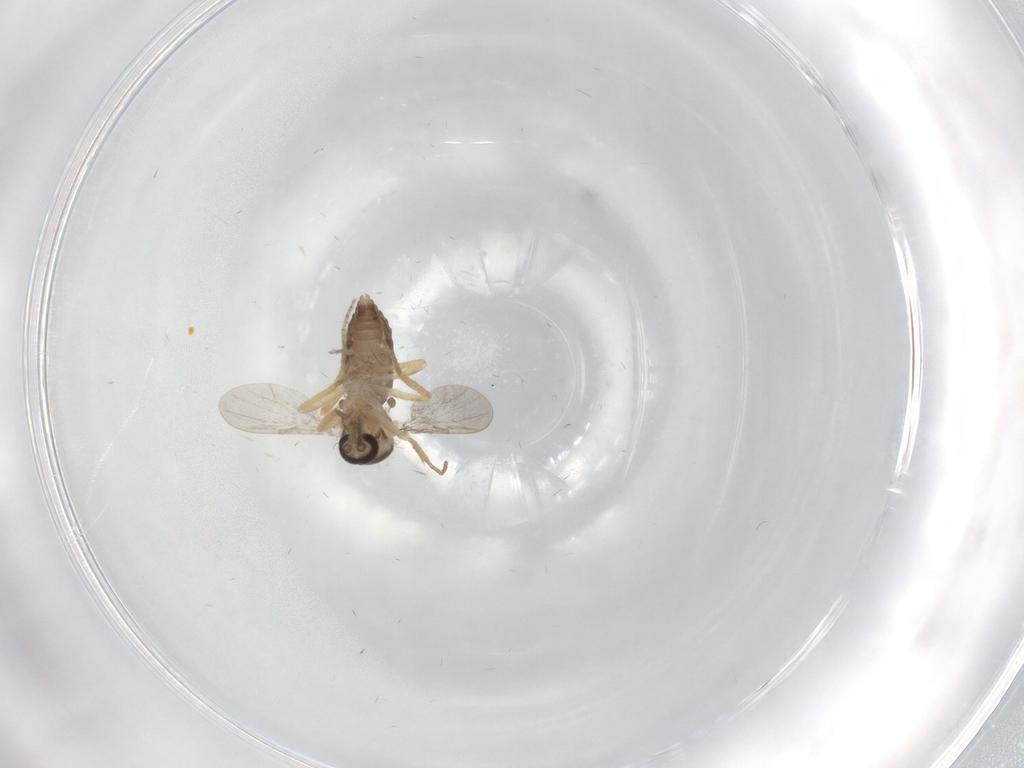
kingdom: Animalia
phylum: Arthropoda
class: Insecta
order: Diptera
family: Ceratopogonidae
